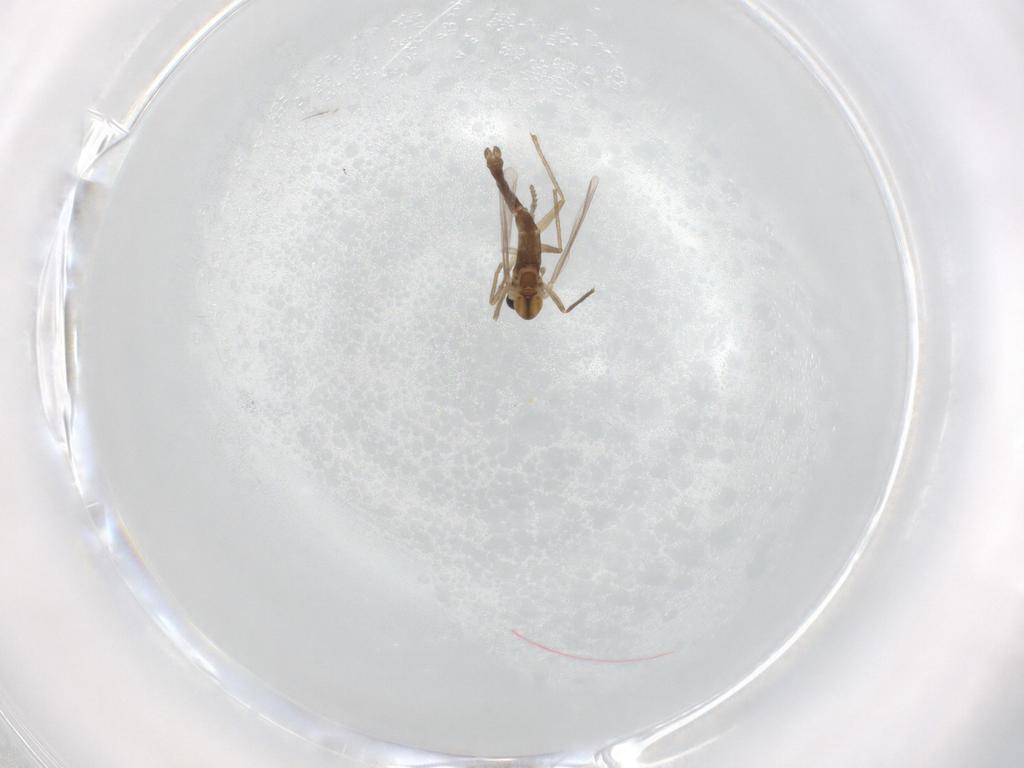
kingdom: Animalia
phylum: Arthropoda
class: Insecta
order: Diptera
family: Chironomidae
